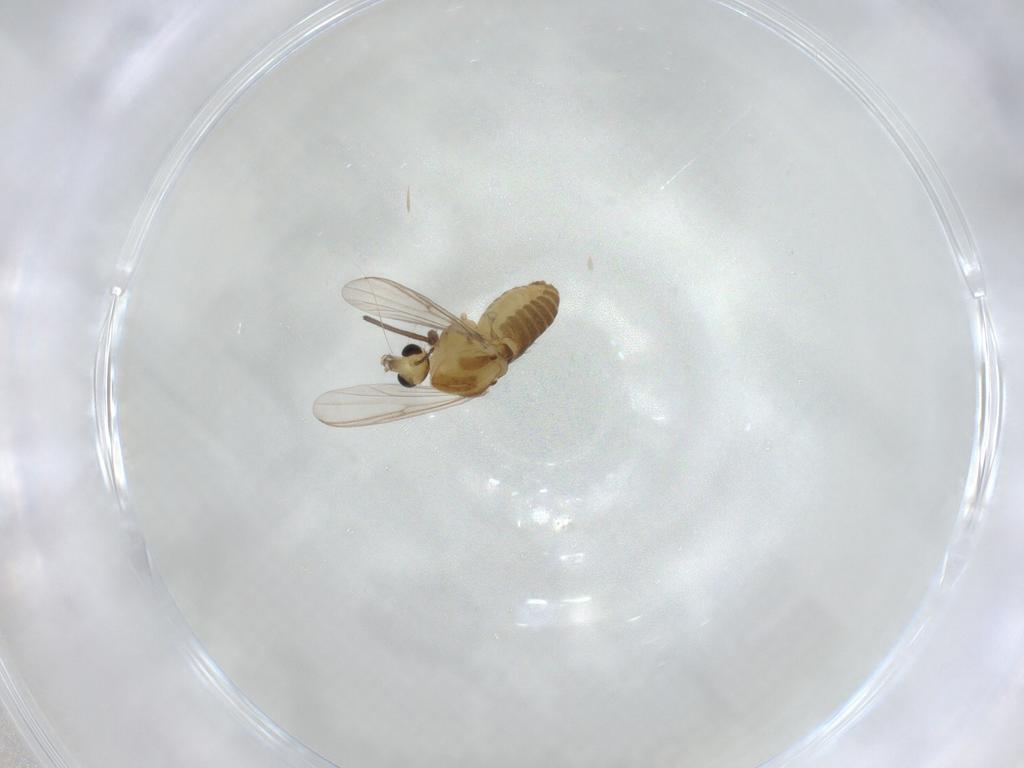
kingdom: Animalia
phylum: Arthropoda
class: Insecta
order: Diptera
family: Chironomidae
